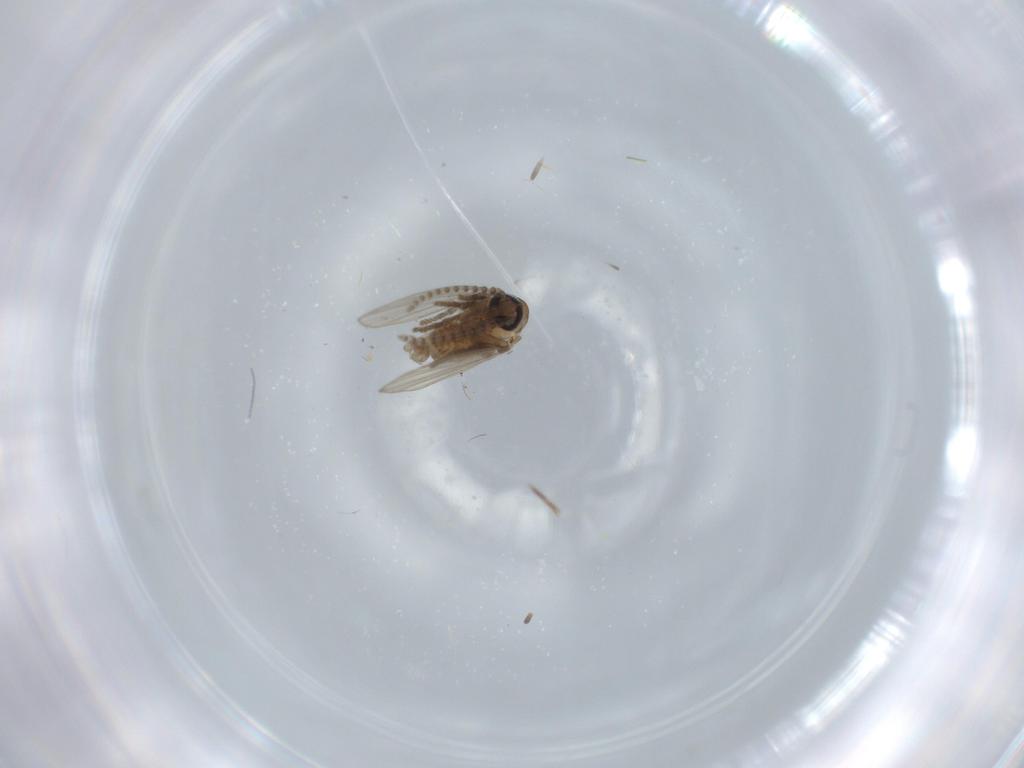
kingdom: Animalia
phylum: Arthropoda
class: Insecta
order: Diptera
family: Psychodidae
